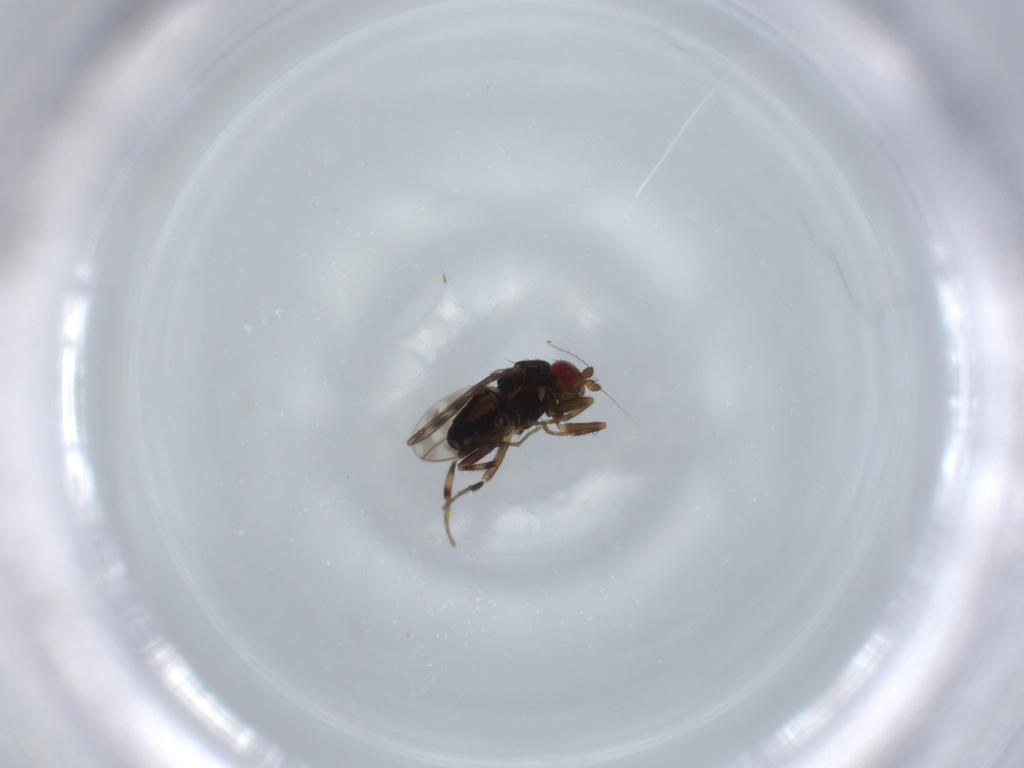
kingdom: Animalia
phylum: Arthropoda
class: Insecta
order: Diptera
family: Sphaeroceridae
